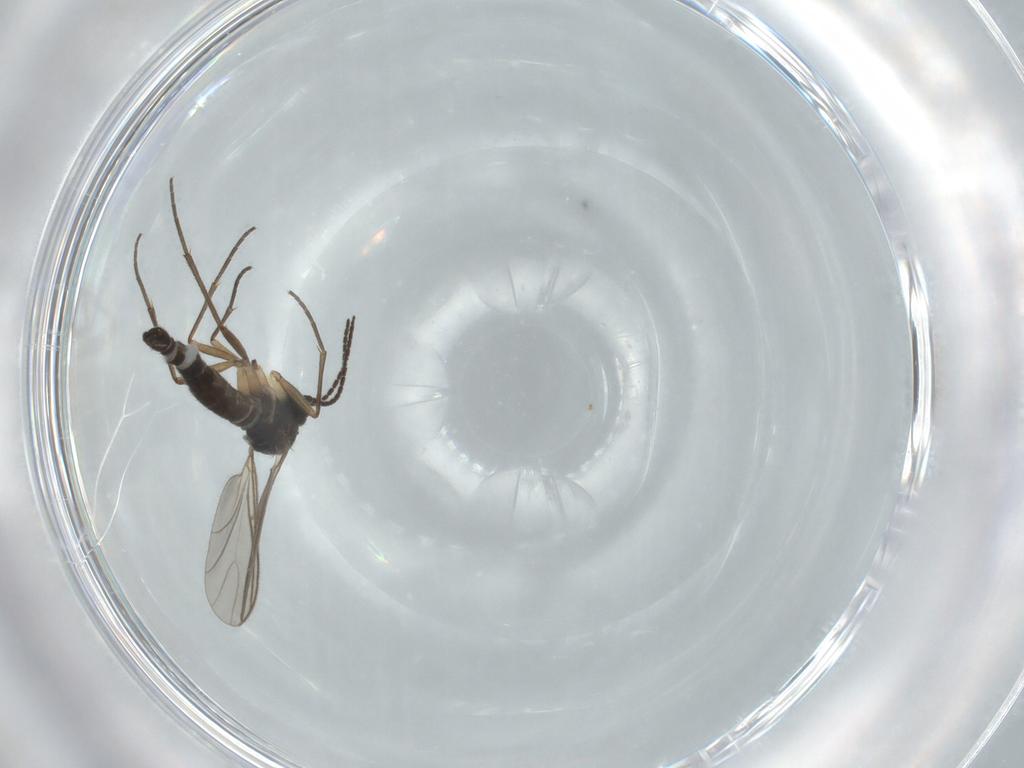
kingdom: Animalia
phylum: Arthropoda
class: Insecta
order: Diptera
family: Sciaridae
